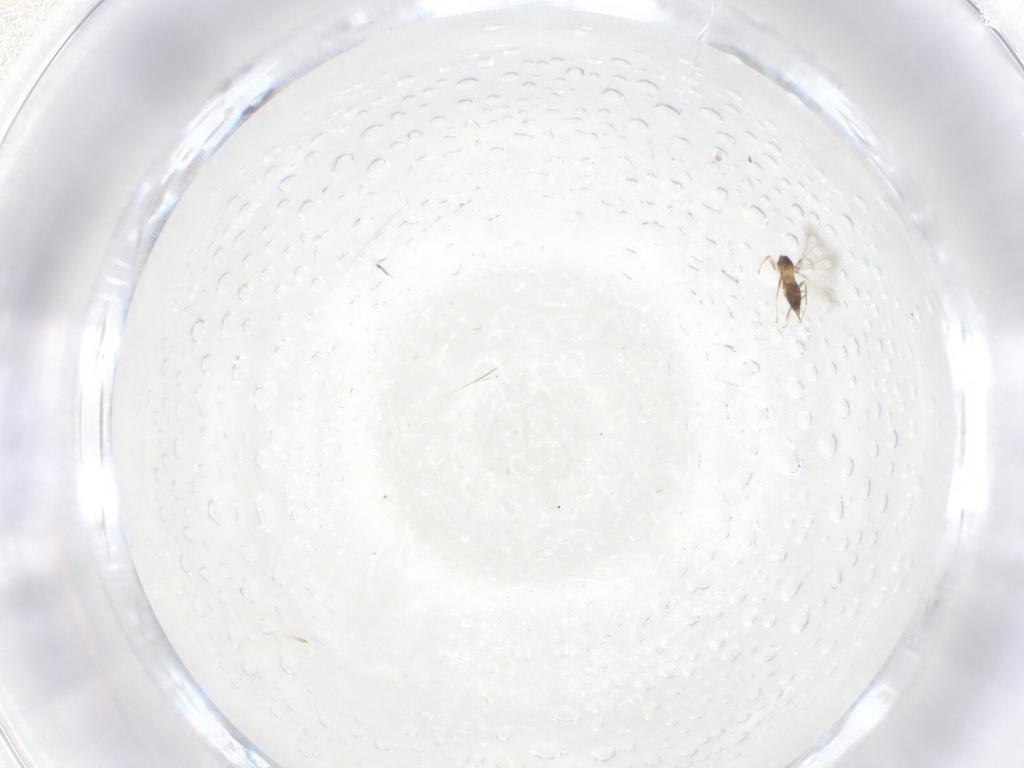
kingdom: Animalia
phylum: Arthropoda
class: Insecta
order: Hymenoptera
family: Mymaridae
